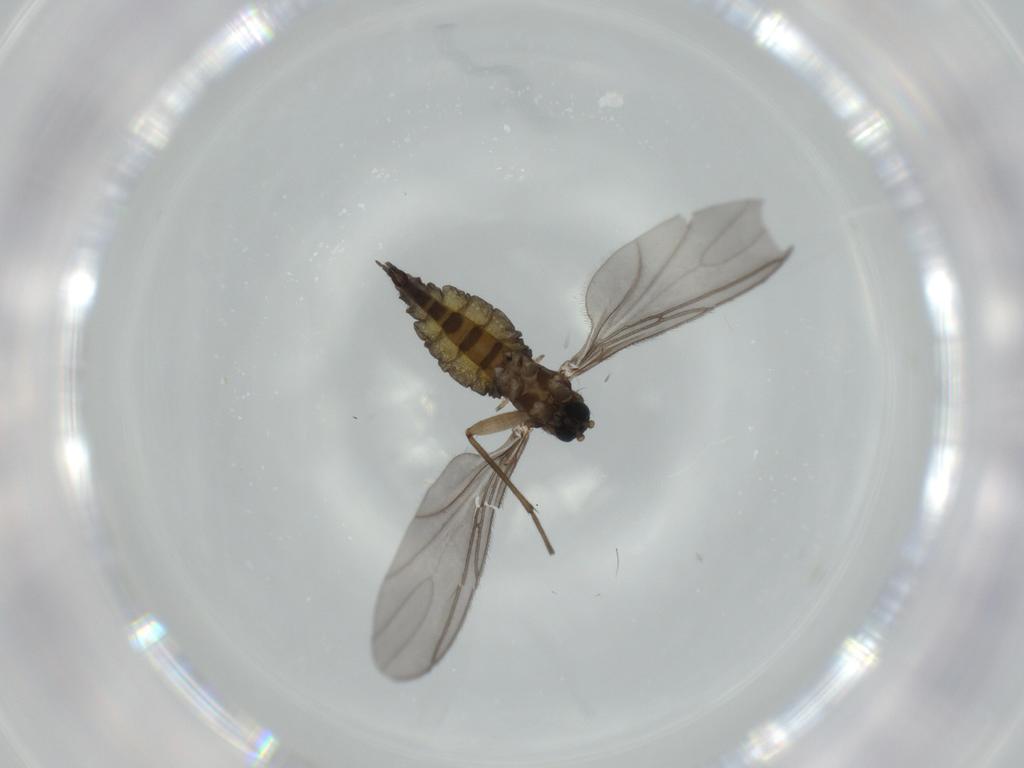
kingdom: Animalia
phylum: Arthropoda
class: Insecta
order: Diptera
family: Sciaridae
